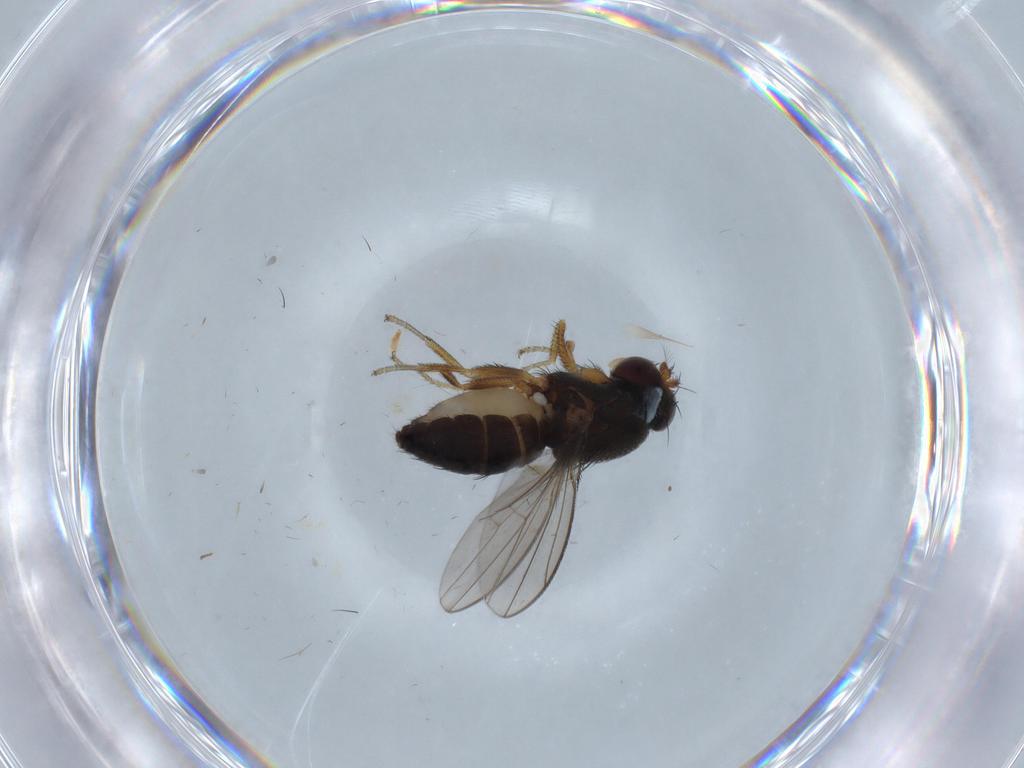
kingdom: Animalia
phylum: Arthropoda
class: Insecta
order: Diptera
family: Ephydridae
